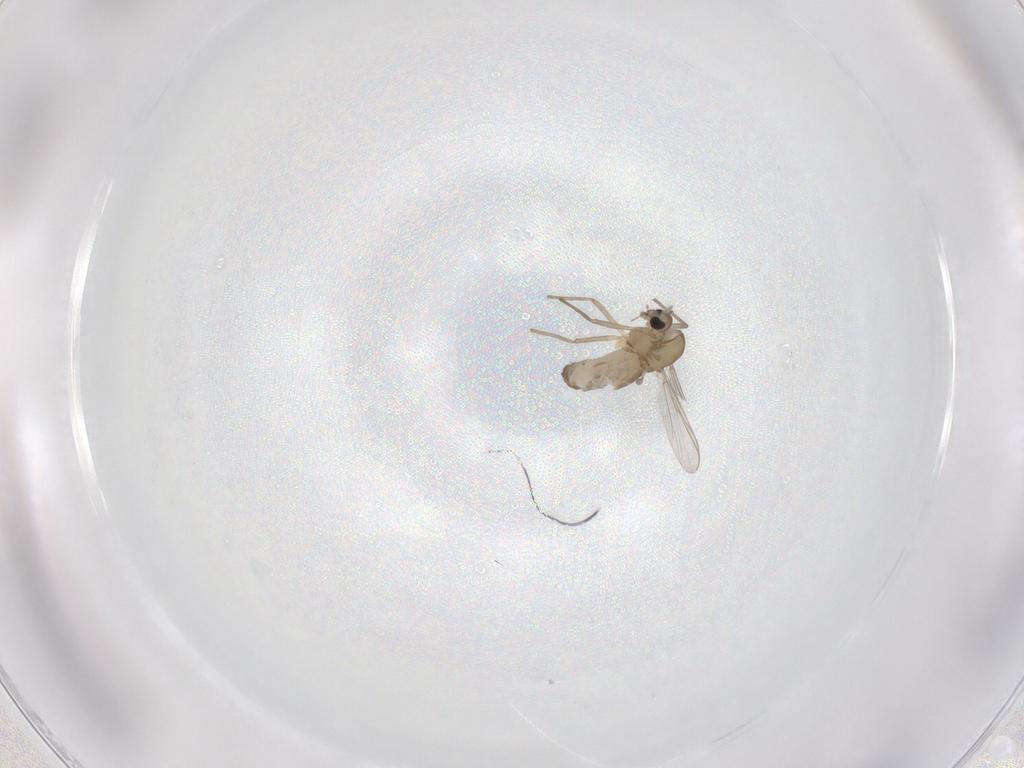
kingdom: Animalia
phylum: Arthropoda
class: Insecta
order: Diptera
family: Chironomidae
